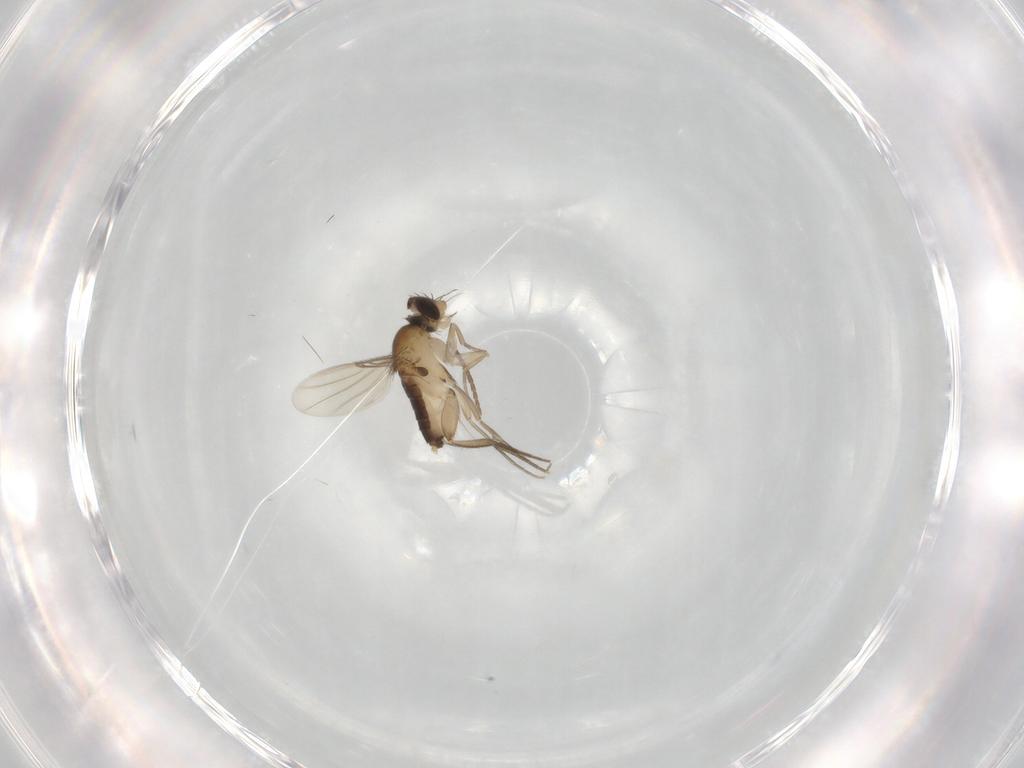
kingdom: Animalia
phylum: Arthropoda
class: Insecta
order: Diptera
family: Phoridae
